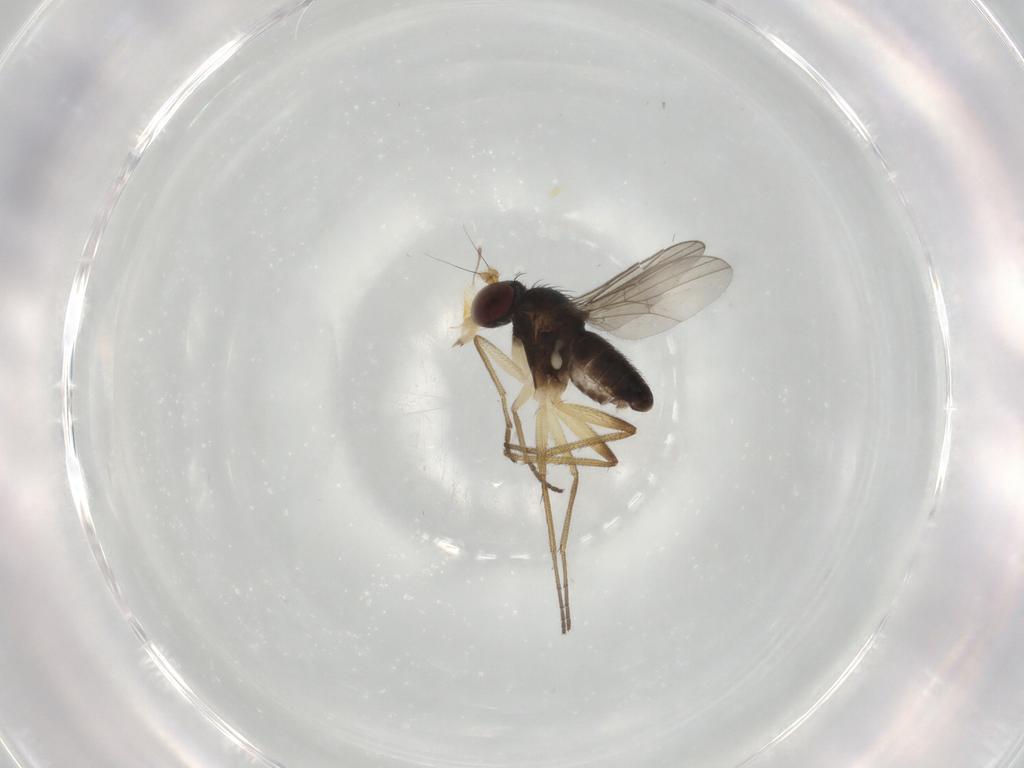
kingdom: Animalia
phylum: Arthropoda
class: Insecta
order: Diptera
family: Dolichopodidae
